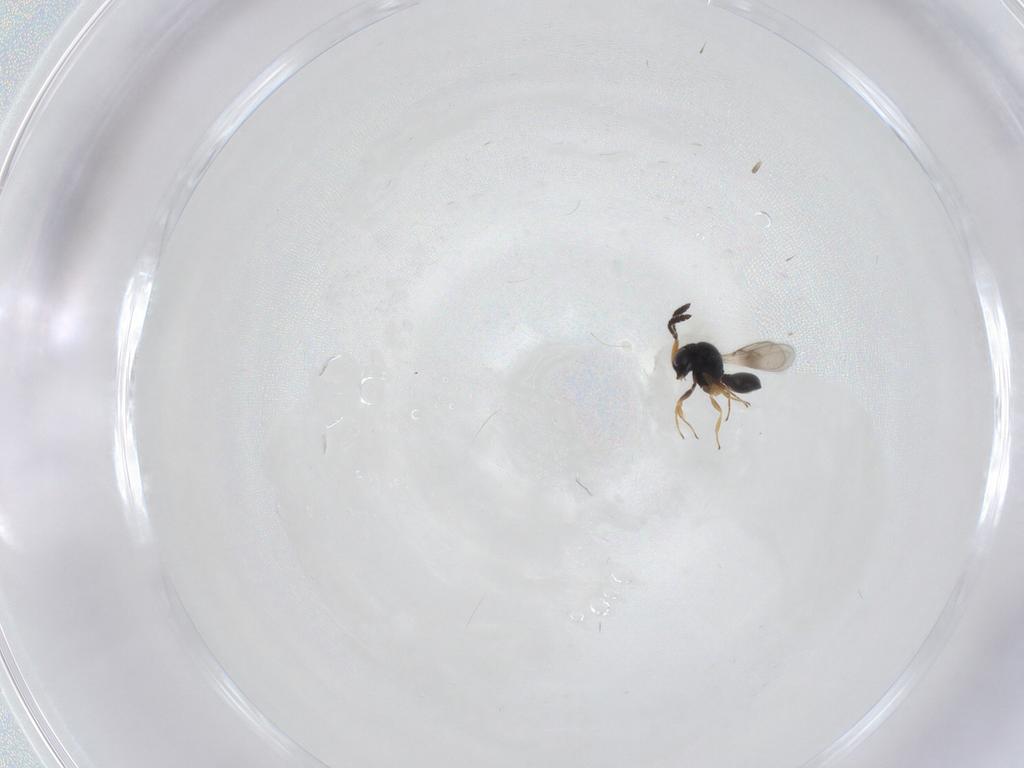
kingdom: Animalia
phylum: Arthropoda
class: Insecta
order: Hymenoptera
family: Scelionidae
